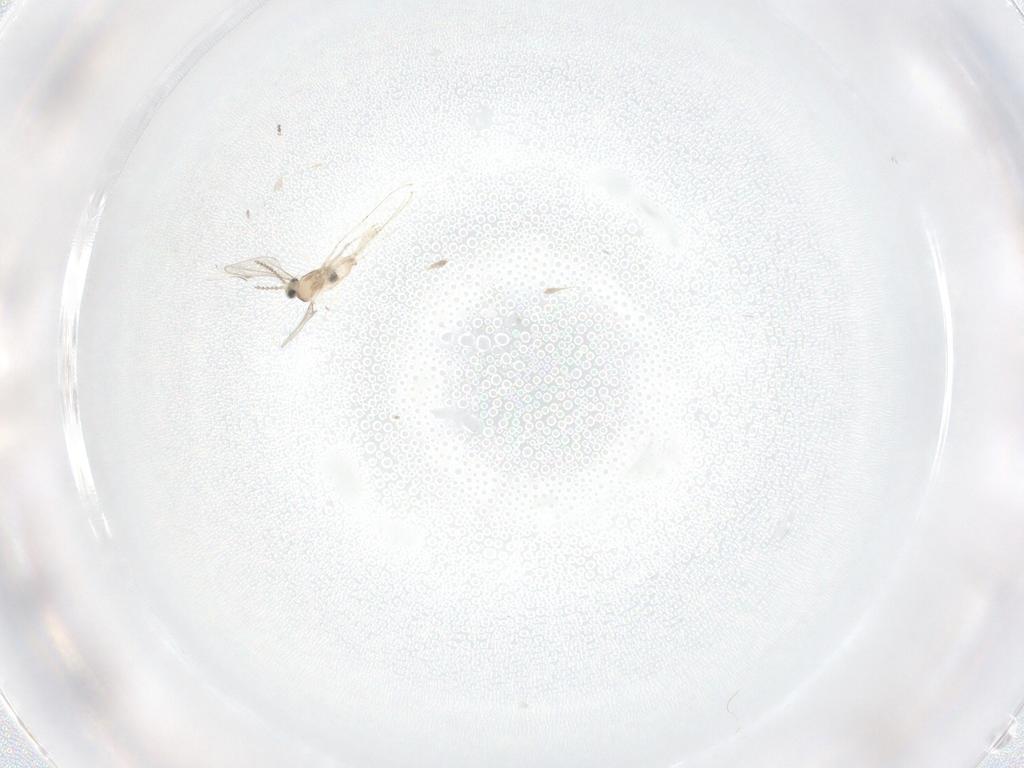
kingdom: Animalia
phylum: Arthropoda
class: Insecta
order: Diptera
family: Cecidomyiidae
